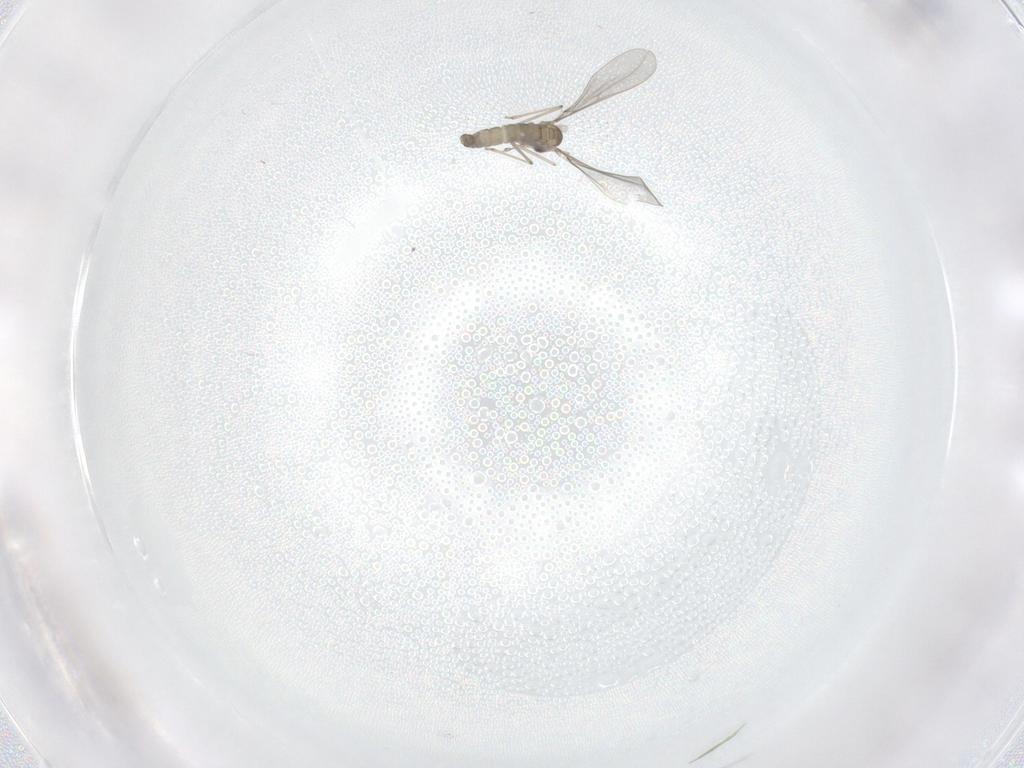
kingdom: Animalia
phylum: Arthropoda
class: Insecta
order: Diptera
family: Cecidomyiidae
